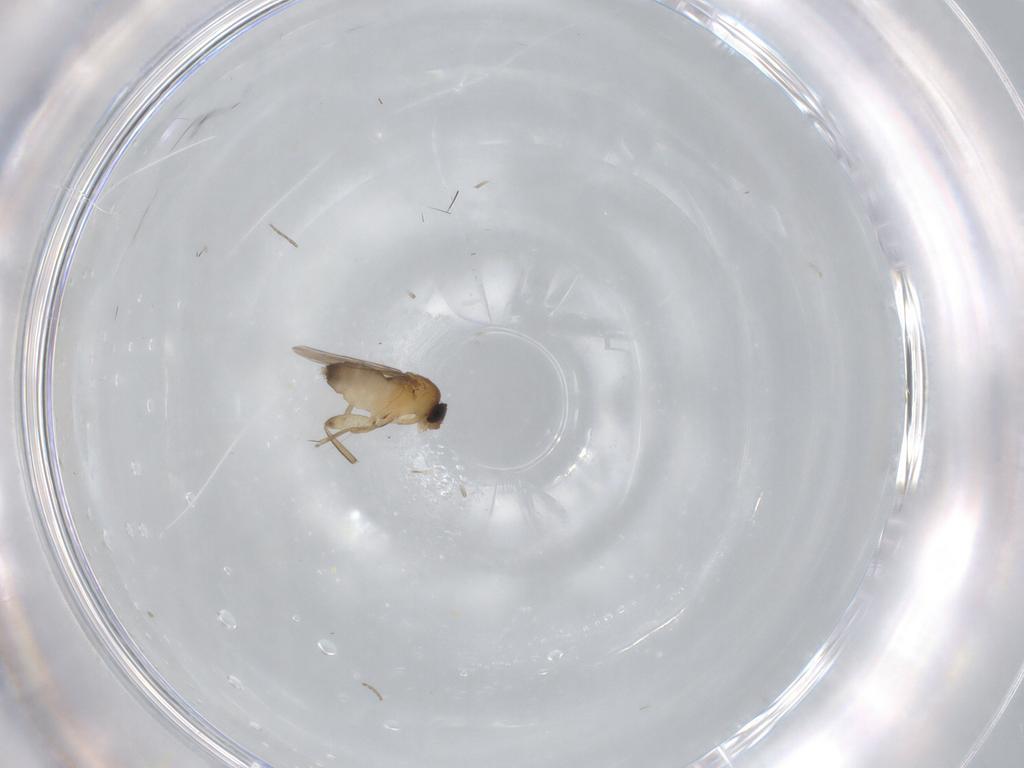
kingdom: Animalia
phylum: Arthropoda
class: Insecta
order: Diptera
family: Phoridae
